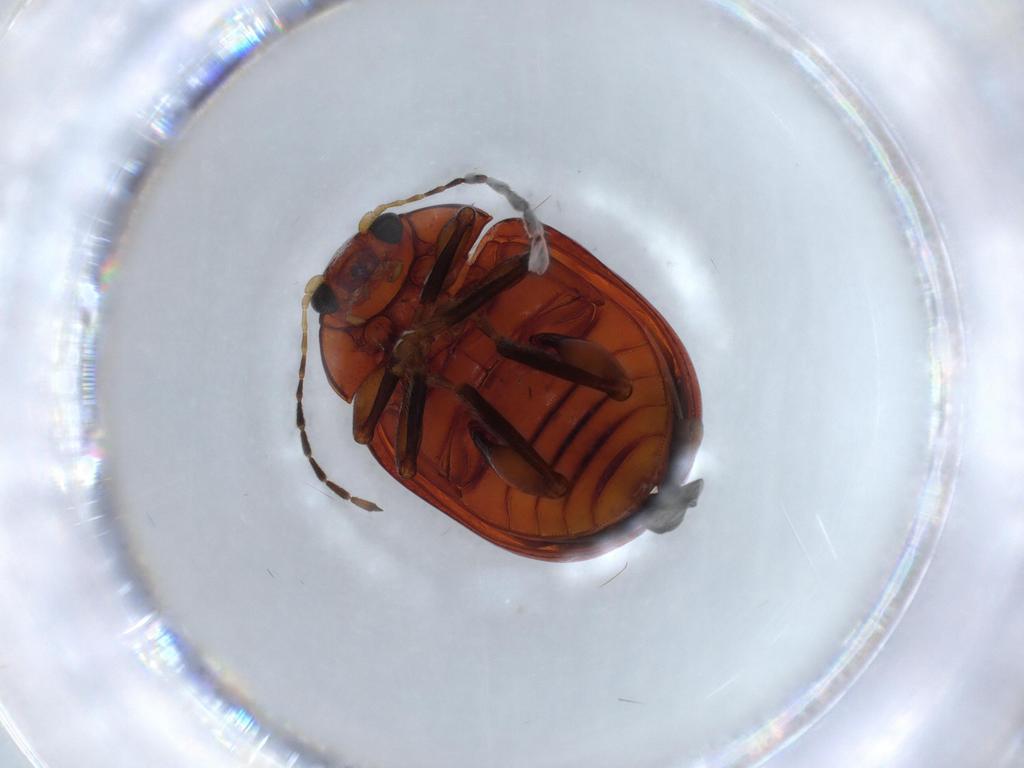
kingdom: Animalia
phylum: Arthropoda
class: Insecta
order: Coleoptera
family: Chrysomelidae
